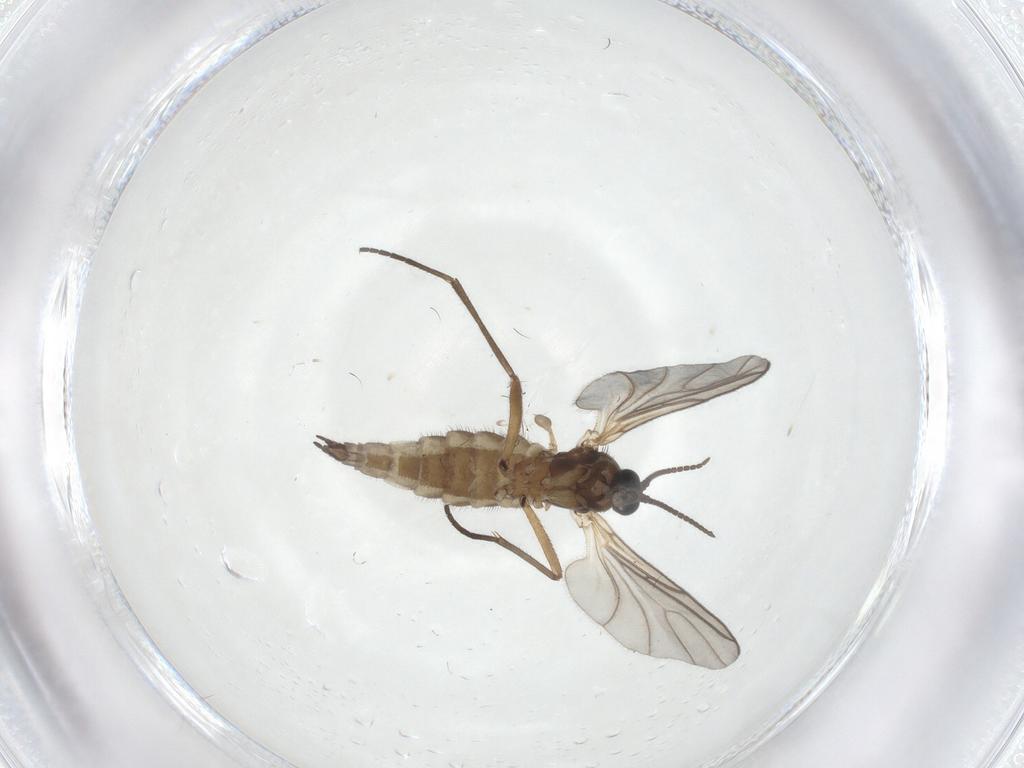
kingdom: Animalia
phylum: Arthropoda
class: Insecta
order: Diptera
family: Sciaridae
